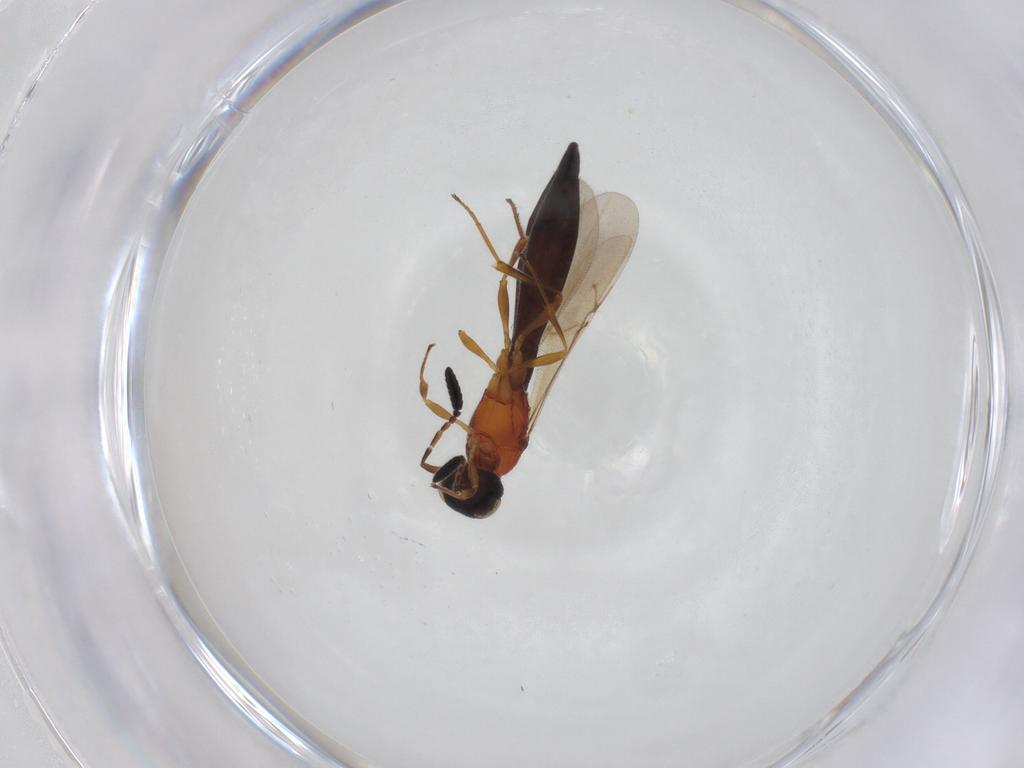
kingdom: Animalia
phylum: Arthropoda
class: Insecta
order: Hymenoptera
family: Scelionidae
